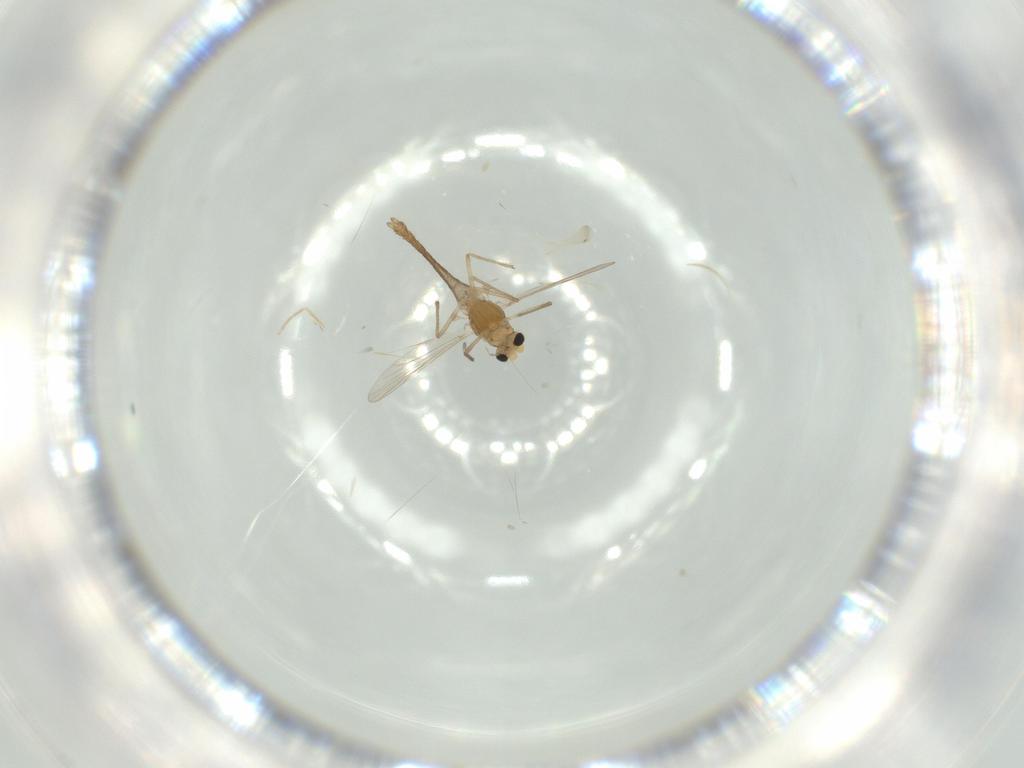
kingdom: Animalia
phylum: Arthropoda
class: Insecta
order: Diptera
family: Chironomidae
